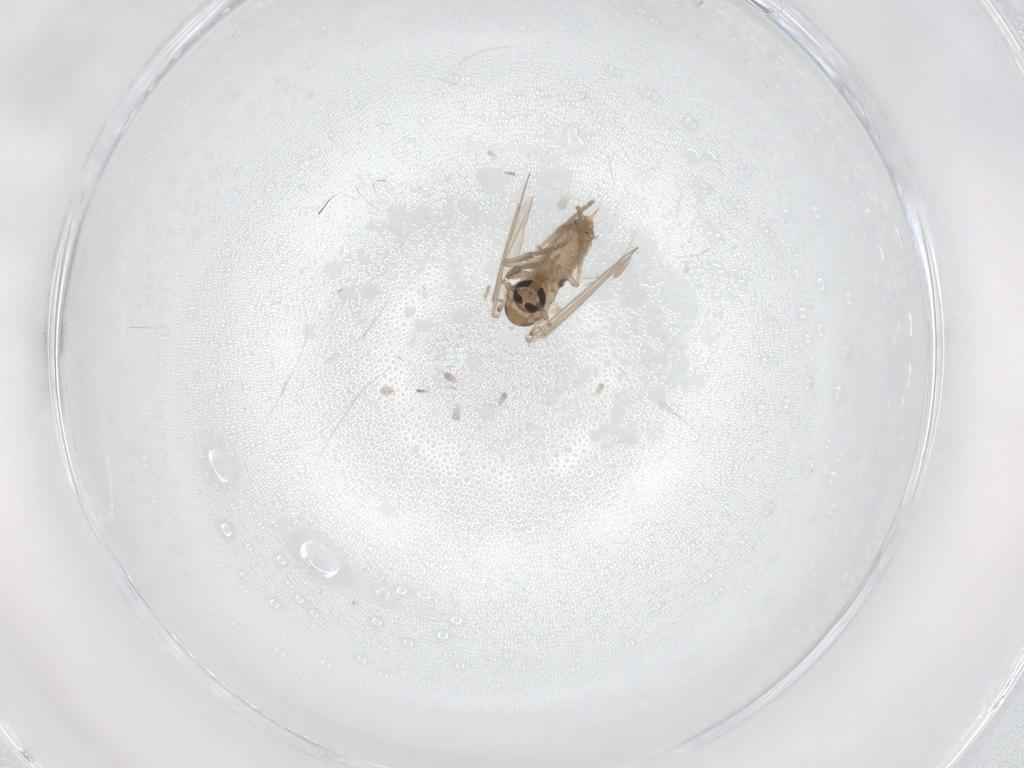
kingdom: Animalia
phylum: Arthropoda
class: Insecta
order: Diptera
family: Psychodidae
